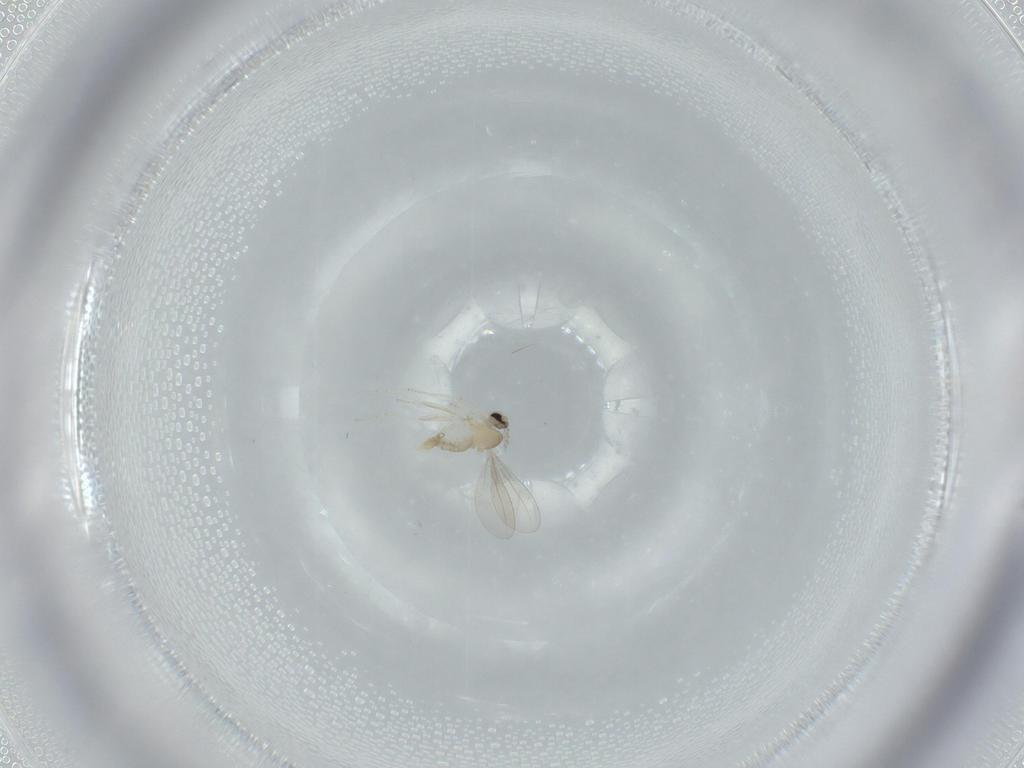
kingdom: Animalia
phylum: Arthropoda
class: Insecta
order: Diptera
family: Cecidomyiidae
